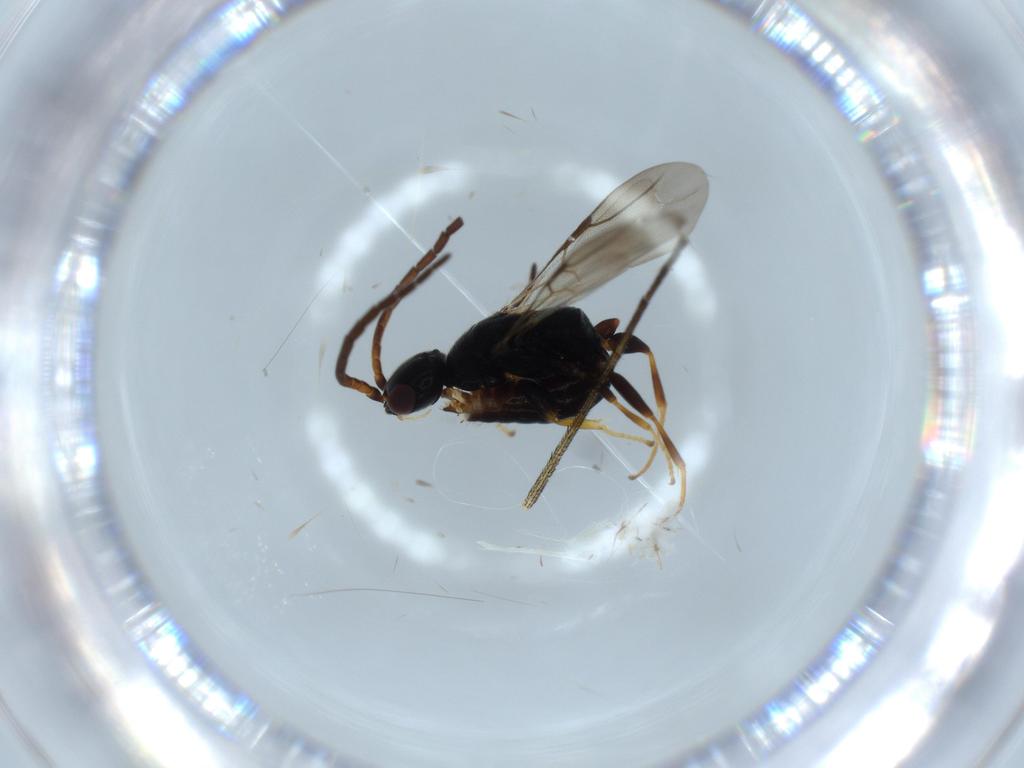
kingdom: Animalia
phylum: Arthropoda
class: Insecta
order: Hymenoptera
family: Bethylidae
